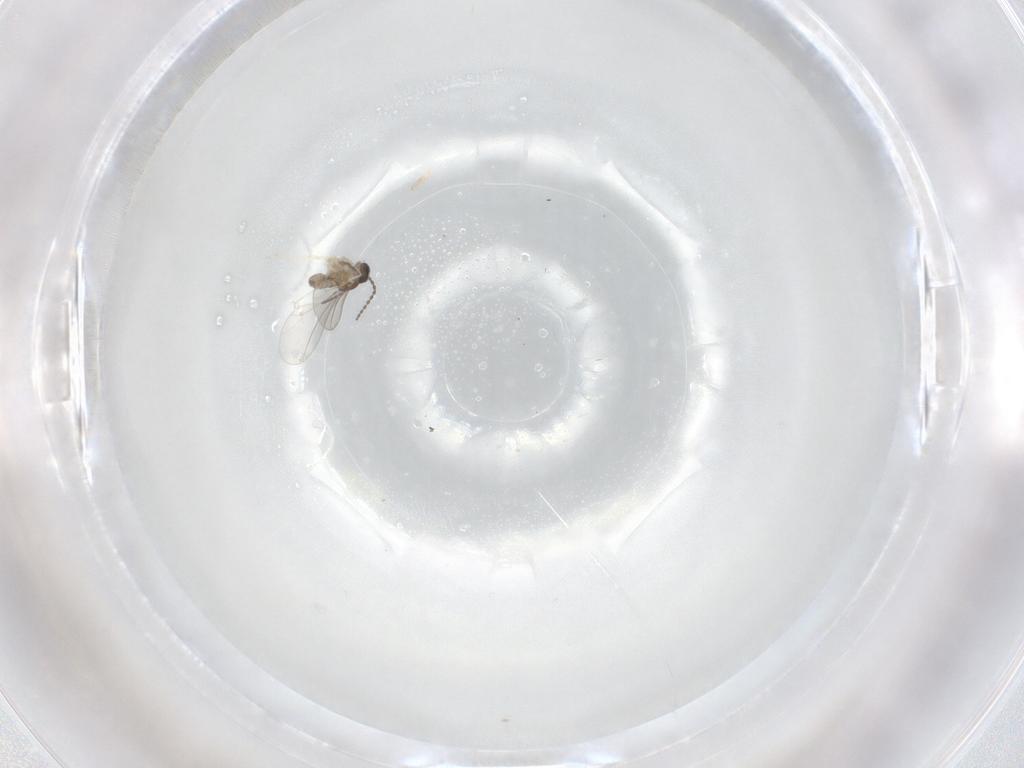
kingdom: Animalia
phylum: Arthropoda
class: Insecta
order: Diptera
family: Cecidomyiidae
